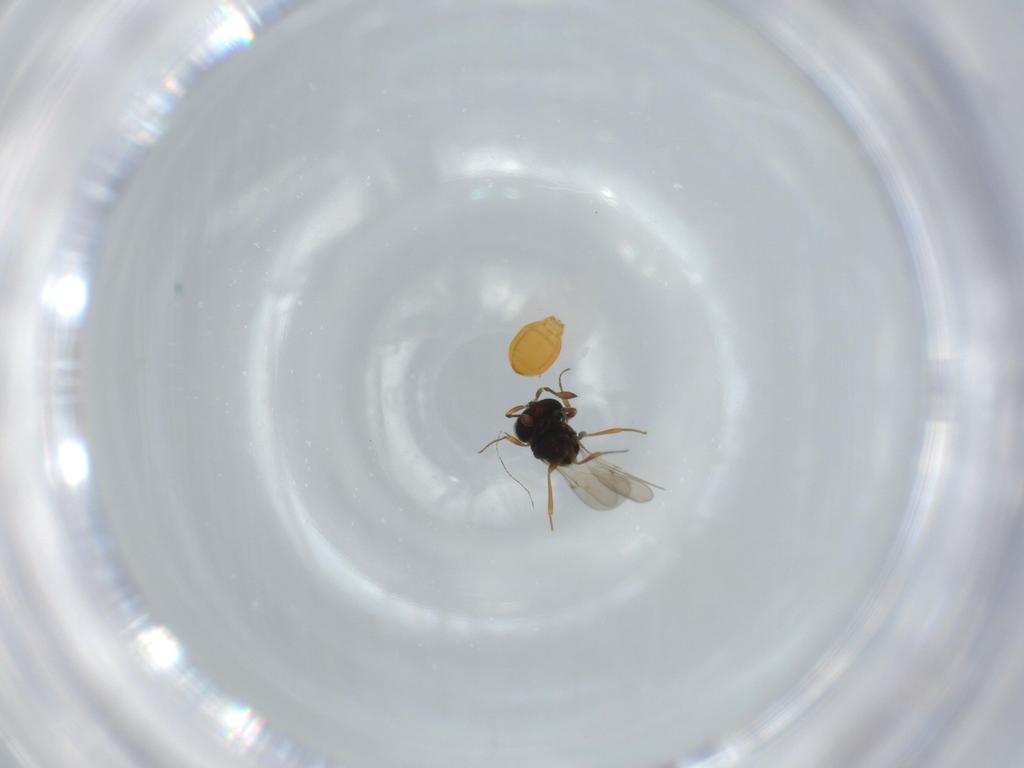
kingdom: Animalia
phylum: Arthropoda
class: Insecta
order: Hymenoptera
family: Scelionidae
